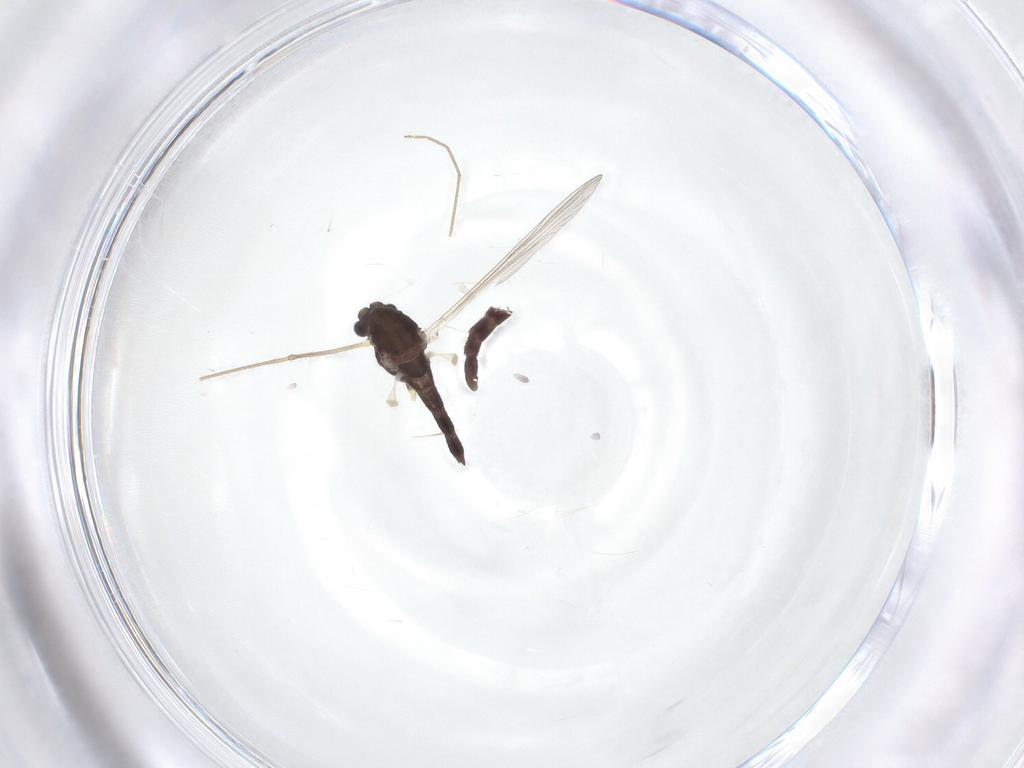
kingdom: Animalia
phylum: Arthropoda
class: Insecta
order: Diptera
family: Chironomidae
